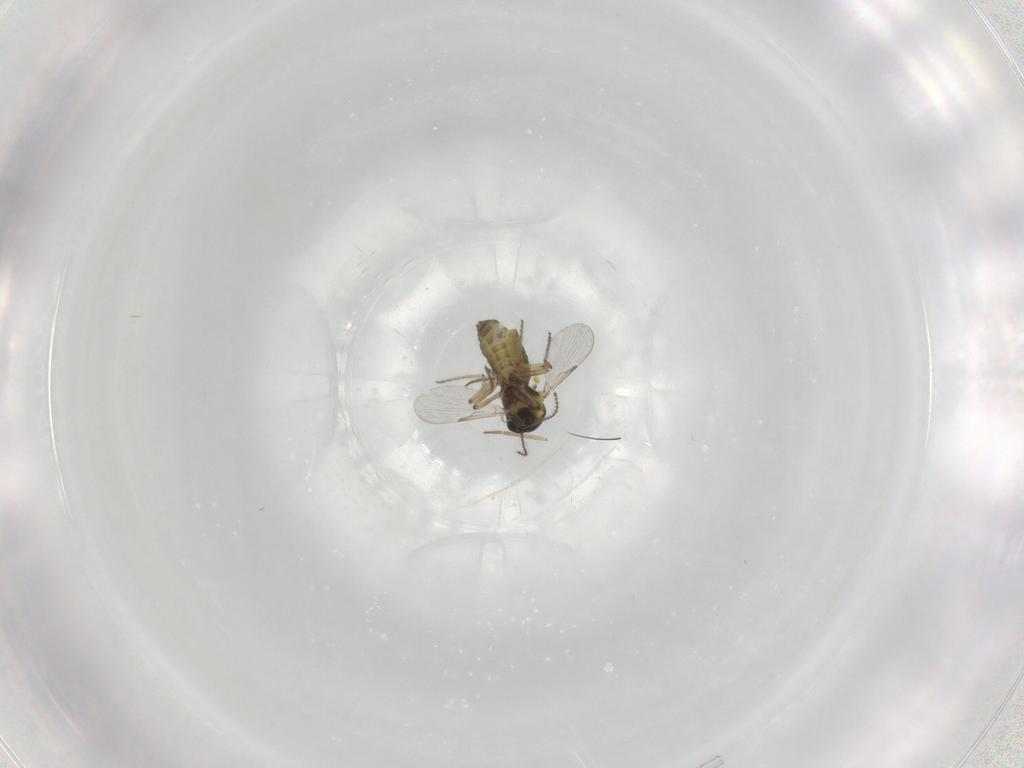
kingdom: Animalia
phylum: Arthropoda
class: Insecta
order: Diptera
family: Ceratopogonidae
